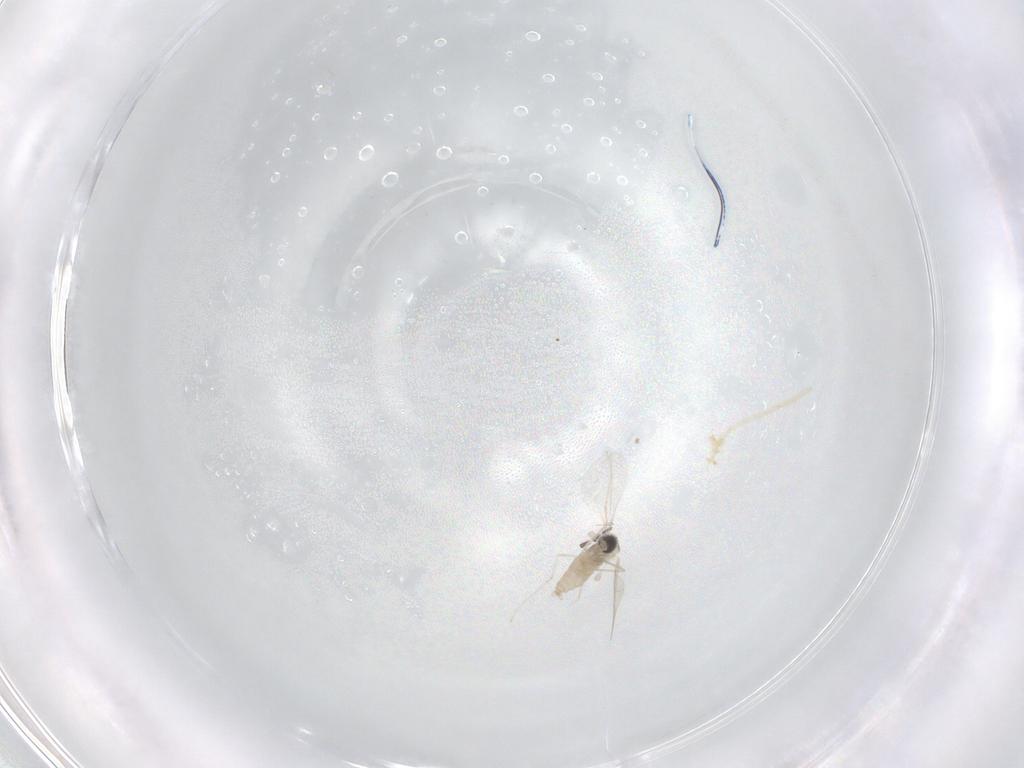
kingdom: Animalia
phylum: Arthropoda
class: Insecta
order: Diptera
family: Cecidomyiidae
